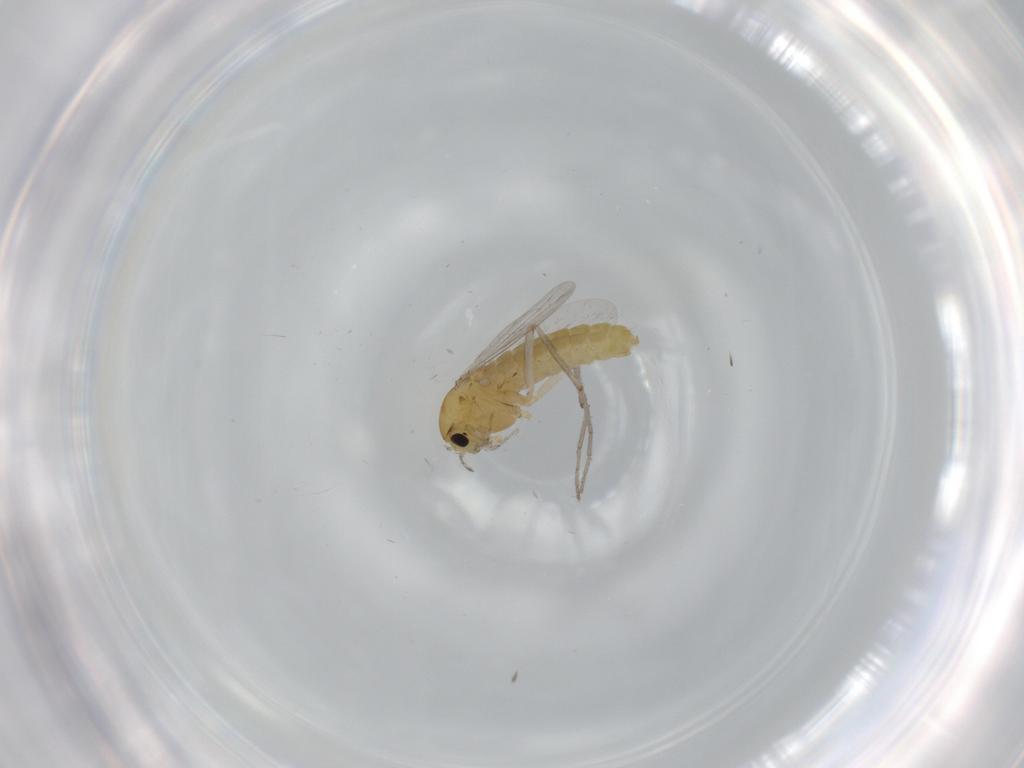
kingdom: Animalia
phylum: Arthropoda
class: Insecta
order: Diptera
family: Chironomidae
